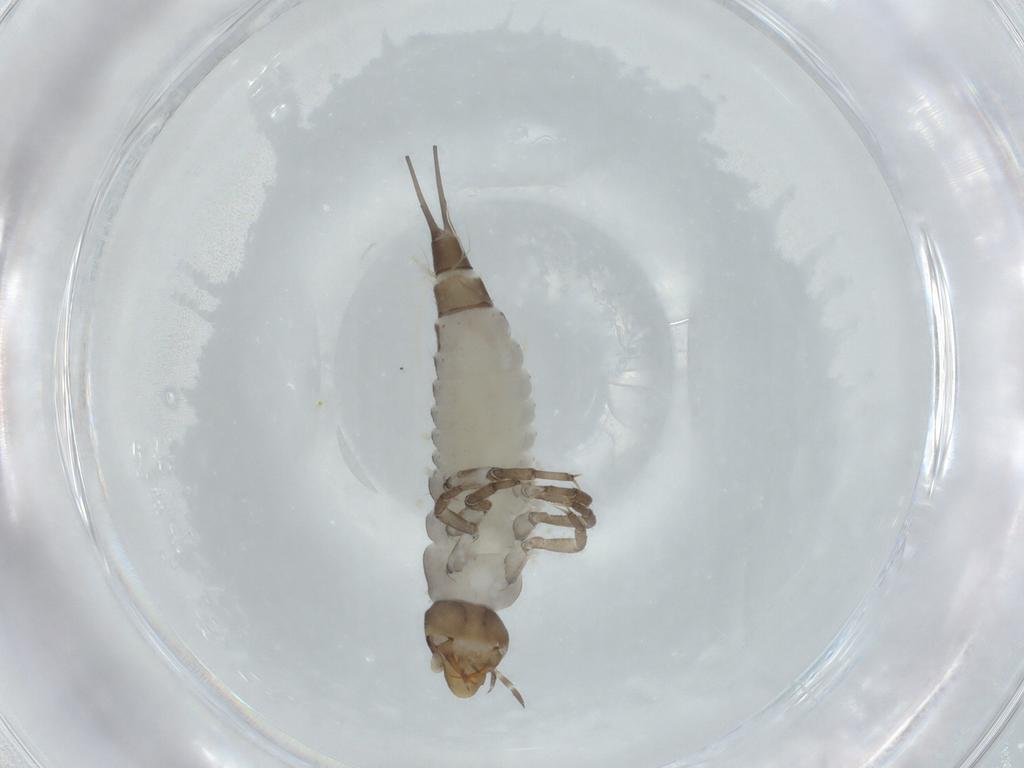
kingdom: Animalia
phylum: Arthropoda
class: Insecta
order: Coleoptera
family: Dytiscidae
